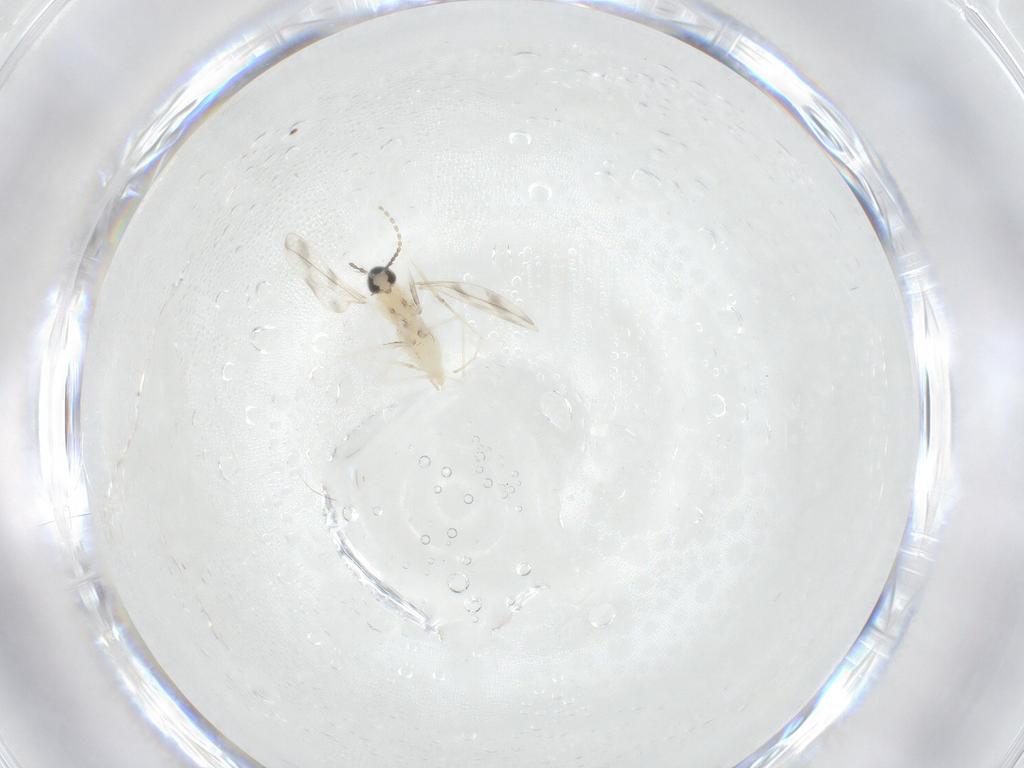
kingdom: Animalia
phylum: Arthropoda
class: Insecta
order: Diptera
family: Cecidomyiidae
